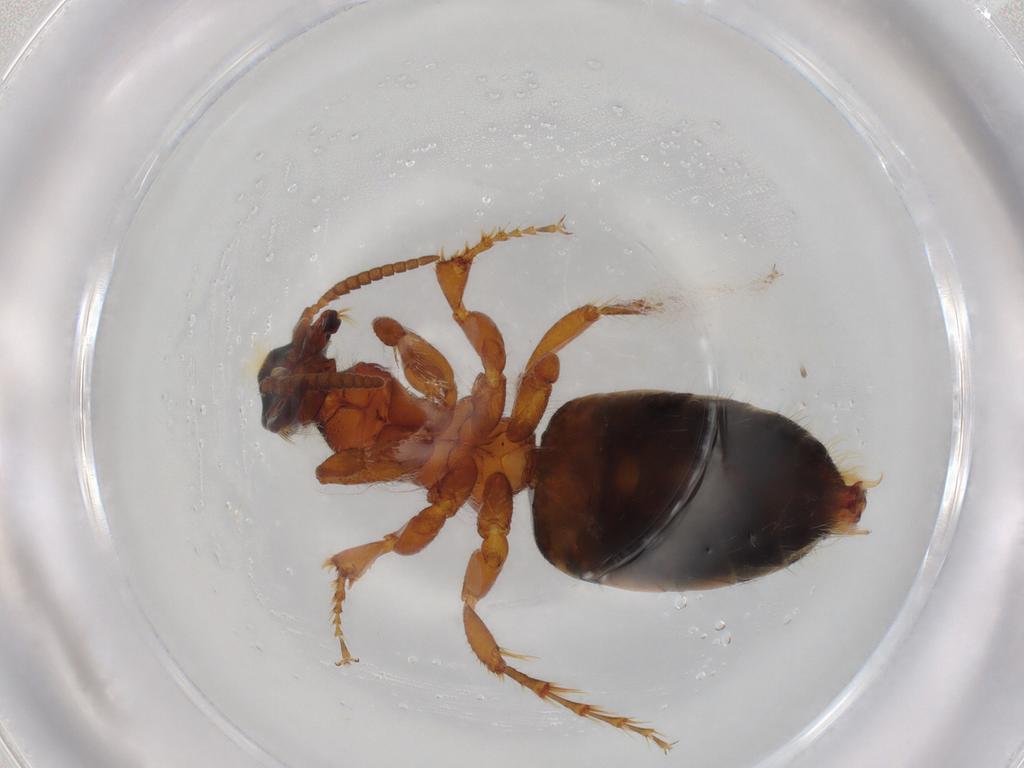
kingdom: Animalia
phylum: Arthropoda
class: Insecta
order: Hymenoptera
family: Thynnidae
